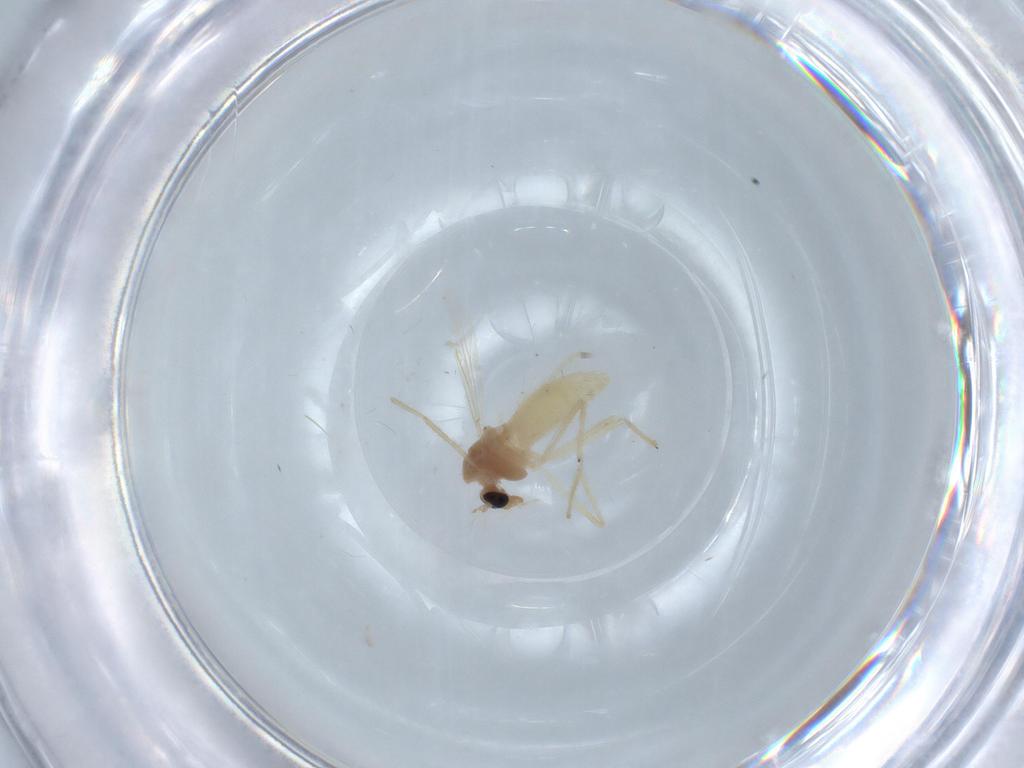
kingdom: Animalia
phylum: Arthropoda
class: Insecta
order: Diptera
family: Chironomidae
